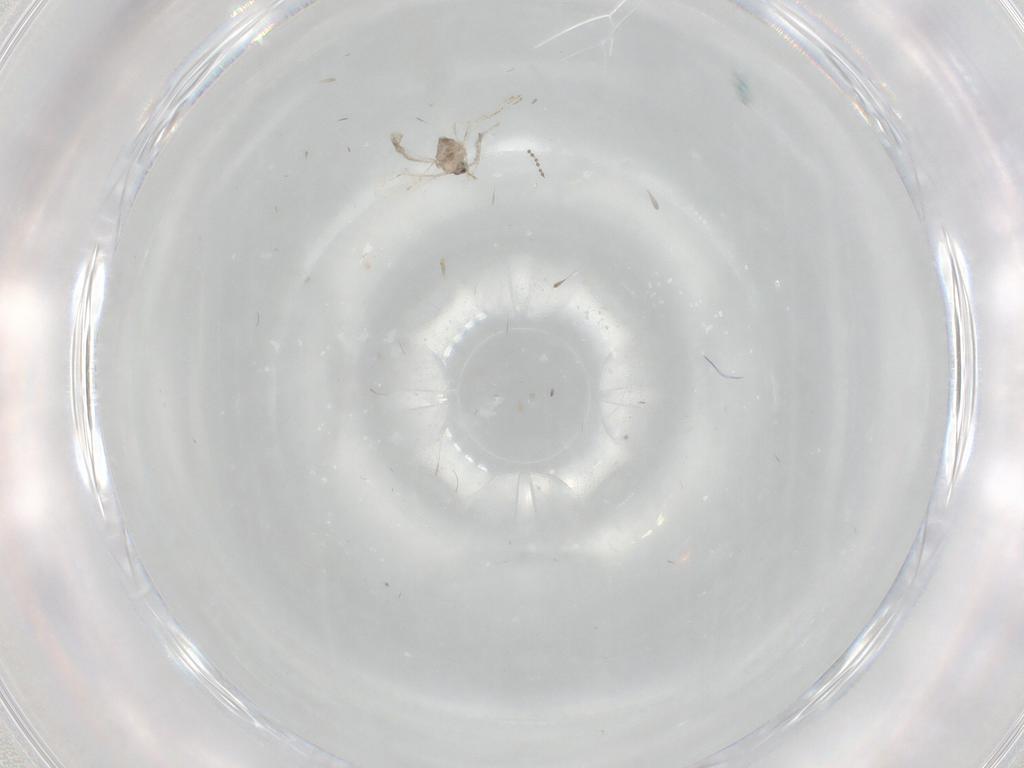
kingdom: Animalia
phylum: Arthropoda
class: Insecta
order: Diptera
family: Cecidomyiidae
